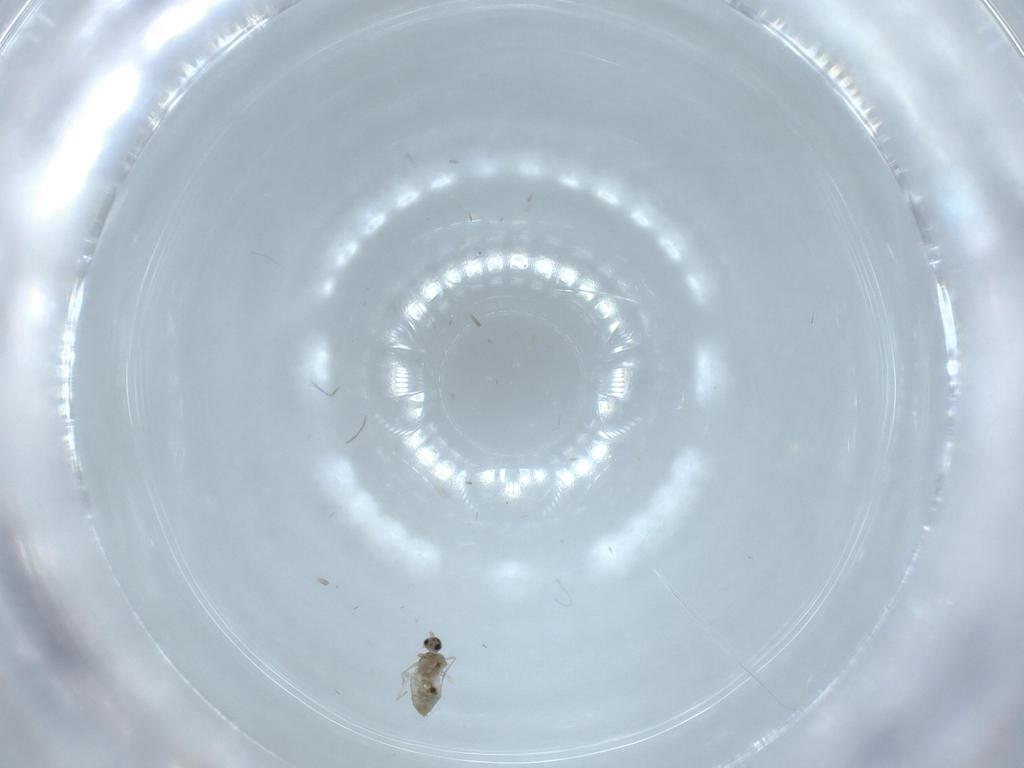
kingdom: Animalia
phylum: Arthropoda
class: Insecta
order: Diptera
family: Cecidomyiidae
